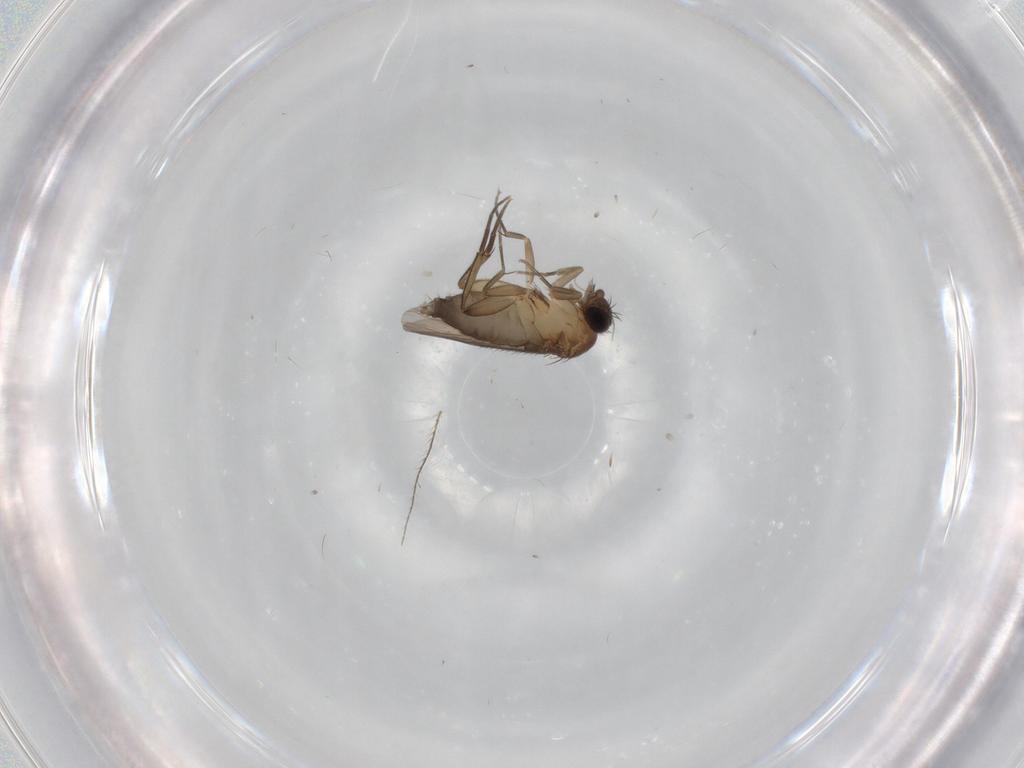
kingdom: Animalia
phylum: Arthropoda
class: Insecta
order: Diptera
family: Phoridae
